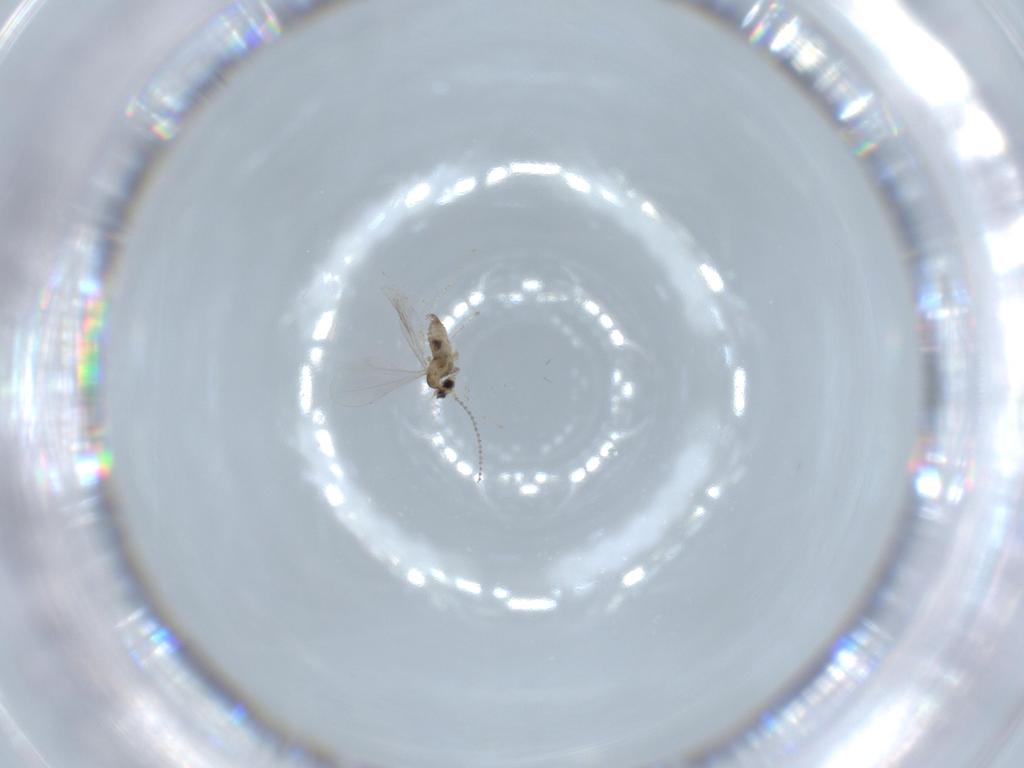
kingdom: Animalia
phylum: Arthropoda
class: Insecta
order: Diptera
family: Cecidomyiidae
